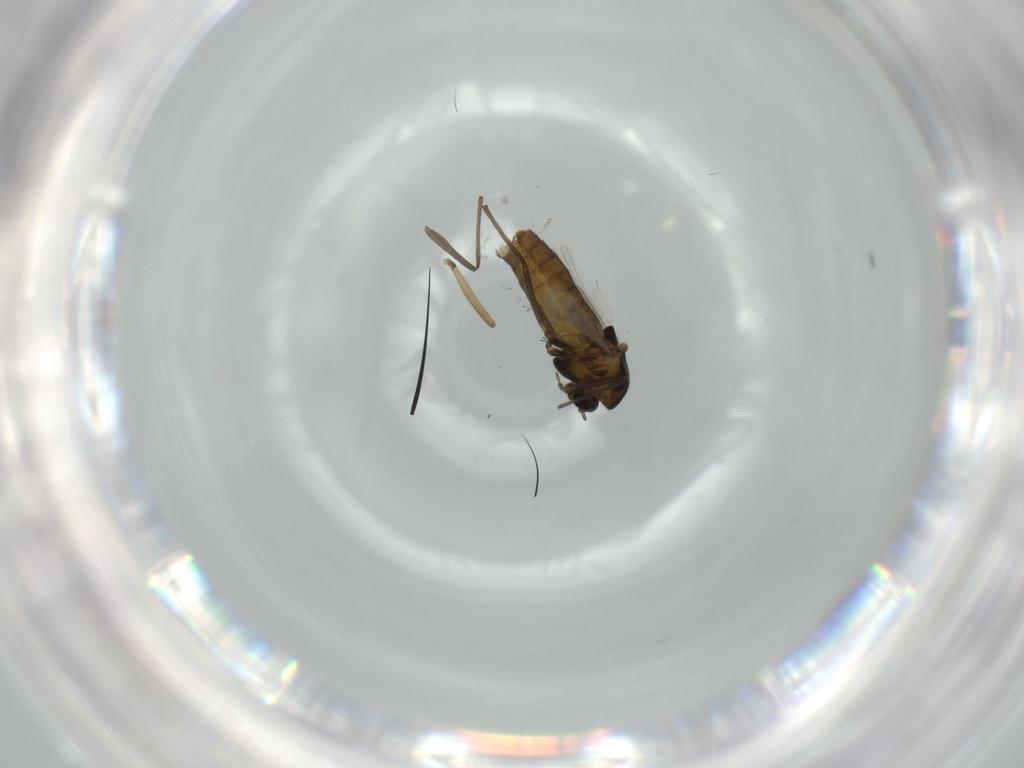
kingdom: Animalia
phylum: Arthropoda
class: Insecta
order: Diptera
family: Chironomidae
